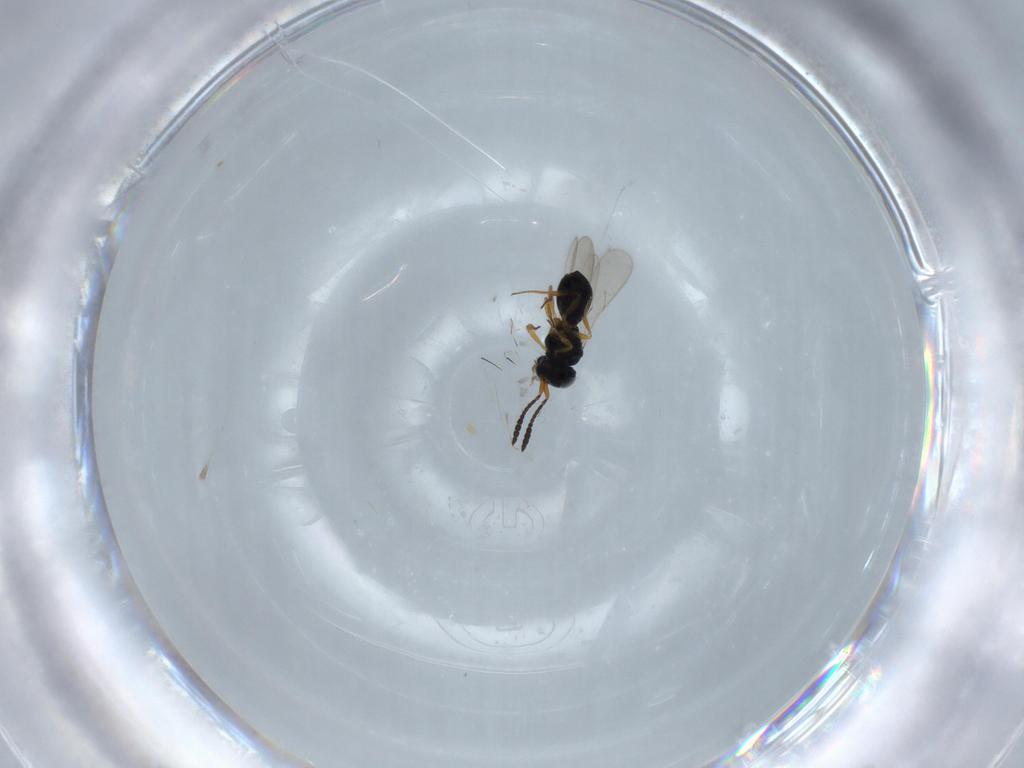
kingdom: Animalia
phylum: Arthropoda
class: Insecta
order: Hymenoptera
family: Scelionidae
